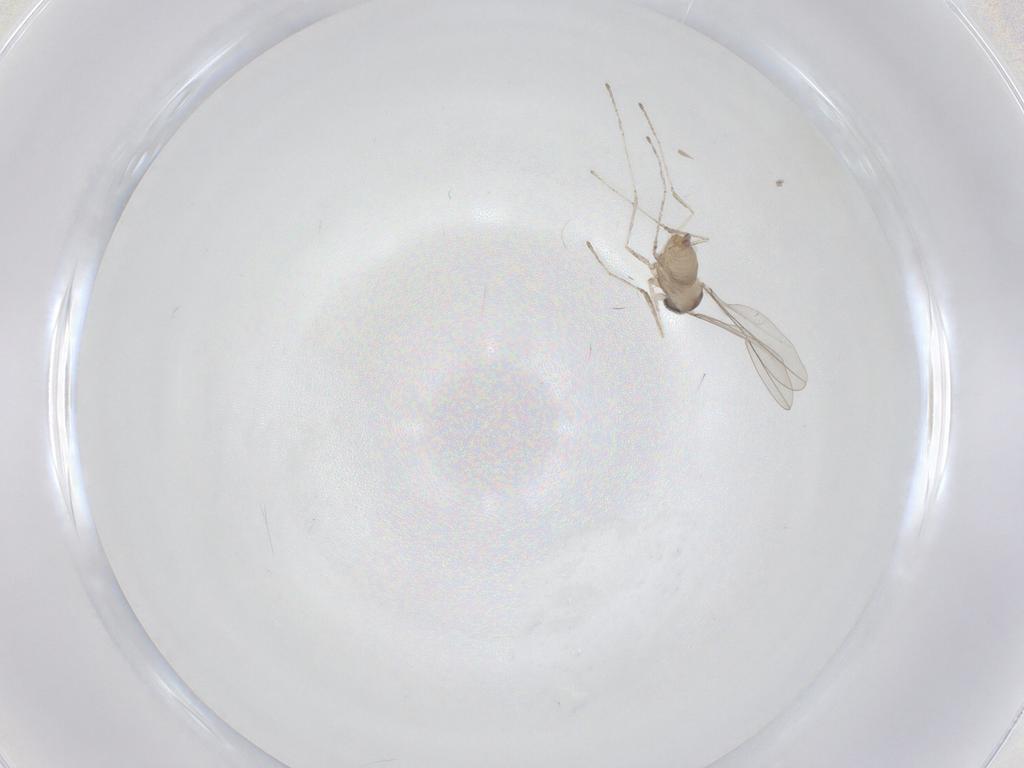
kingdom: Animalia
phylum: Arthropoda
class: Insecta
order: Diptera
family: Cecidomyiidae
